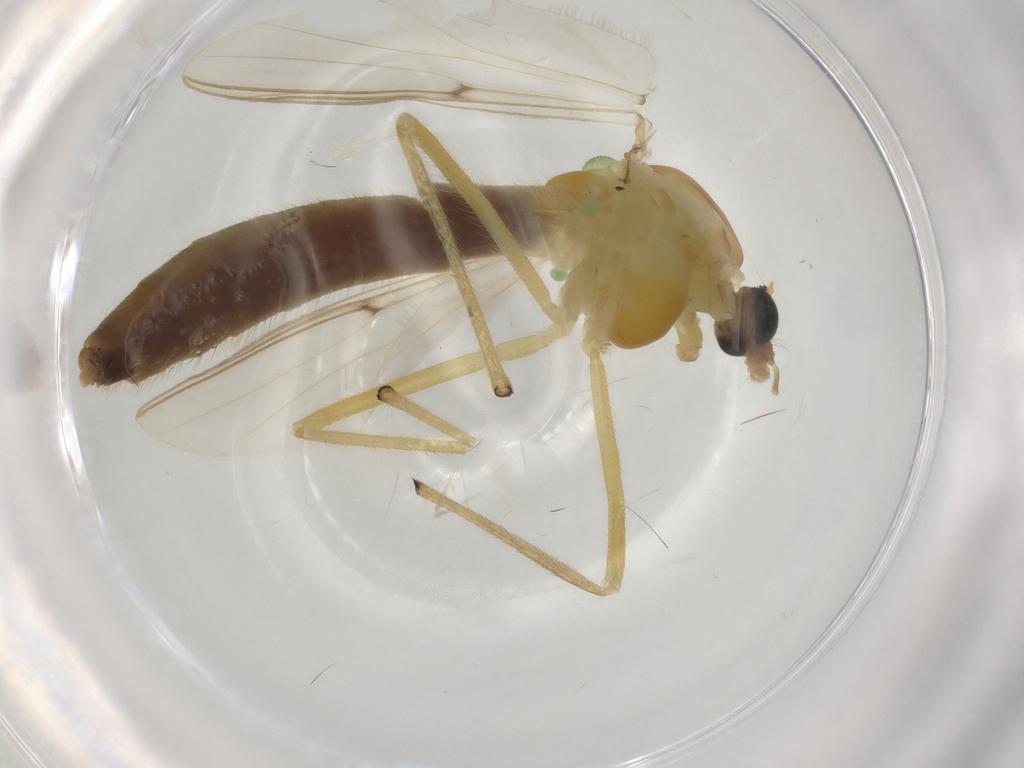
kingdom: Animalia
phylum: Arthropoda
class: Insecta
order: Diptera
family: Chironomidae
